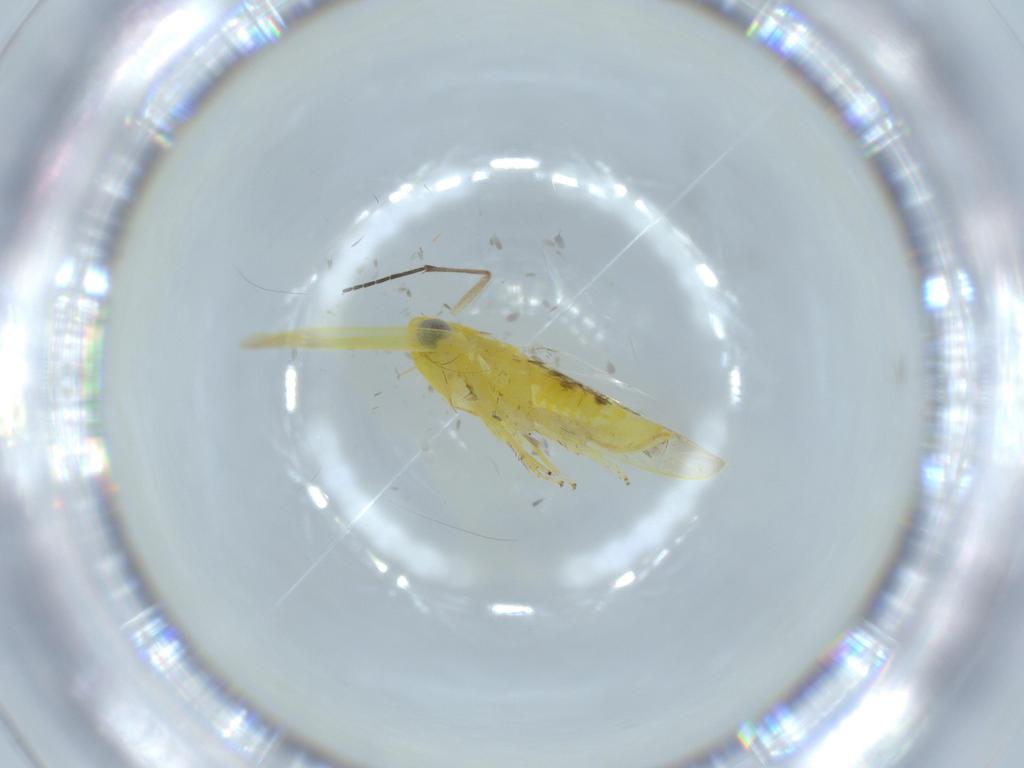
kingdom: Animalia
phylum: Arthropoda
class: Insecta
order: Hemiptera
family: Cicadellidae
